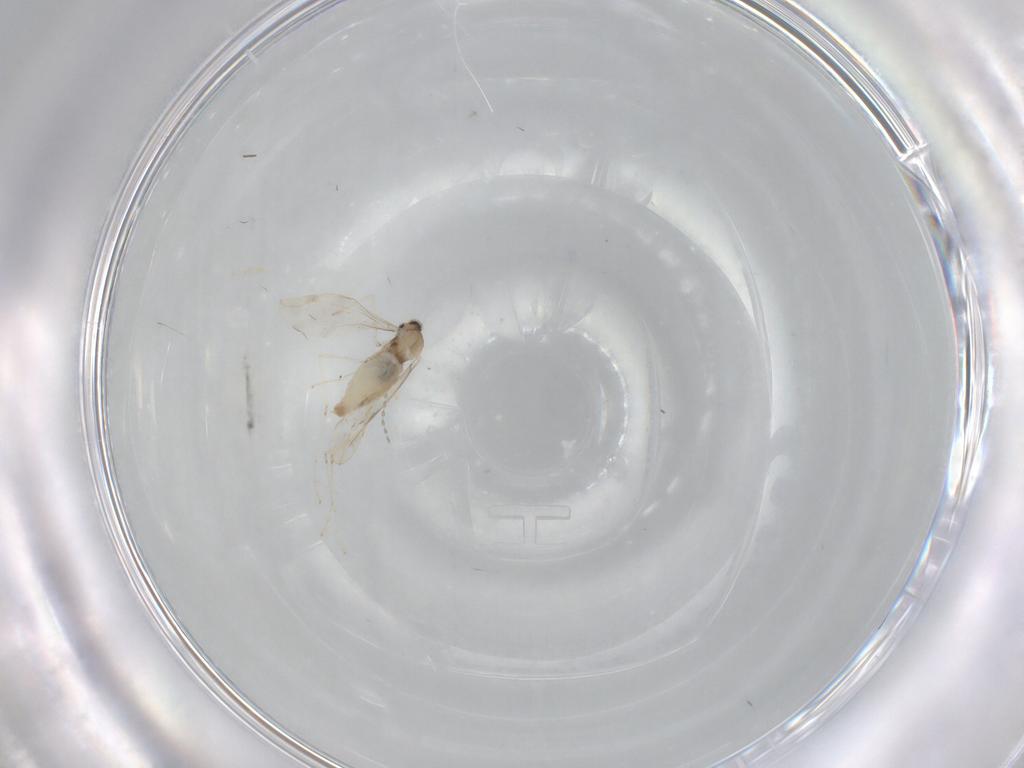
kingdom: Animalia
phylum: Arthropoda
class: Insecta
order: Diptera
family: Cecidomyiidae
